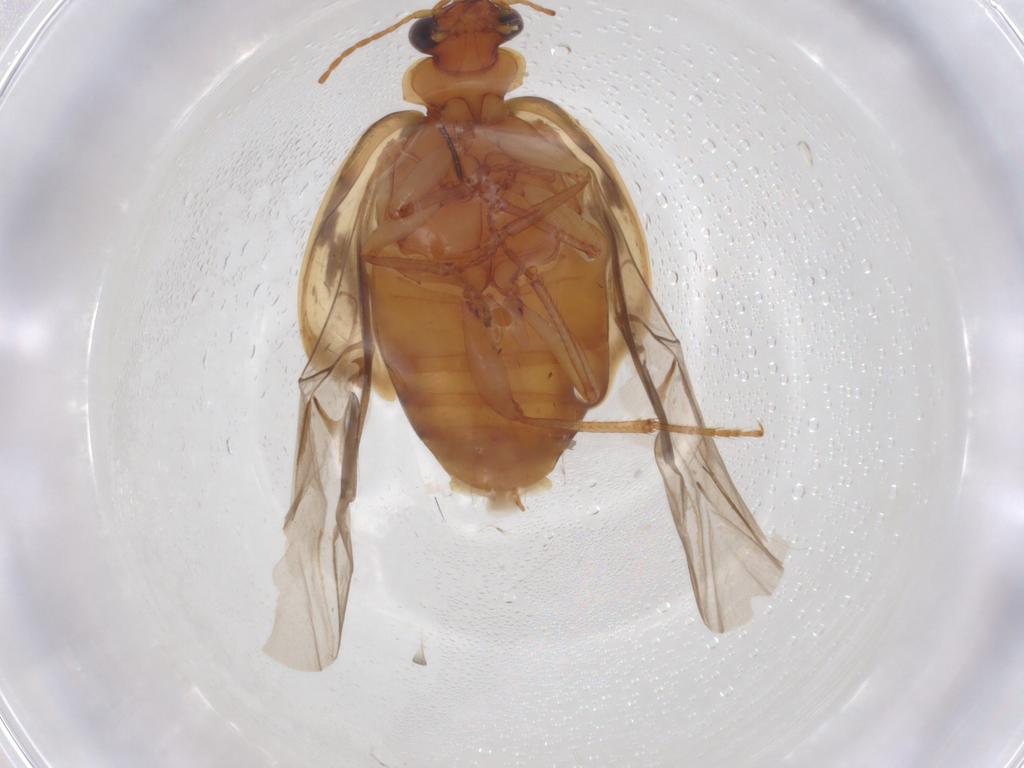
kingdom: Animalia
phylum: Arthropoda
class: Insecta
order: Coleoptera
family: Carabidae
